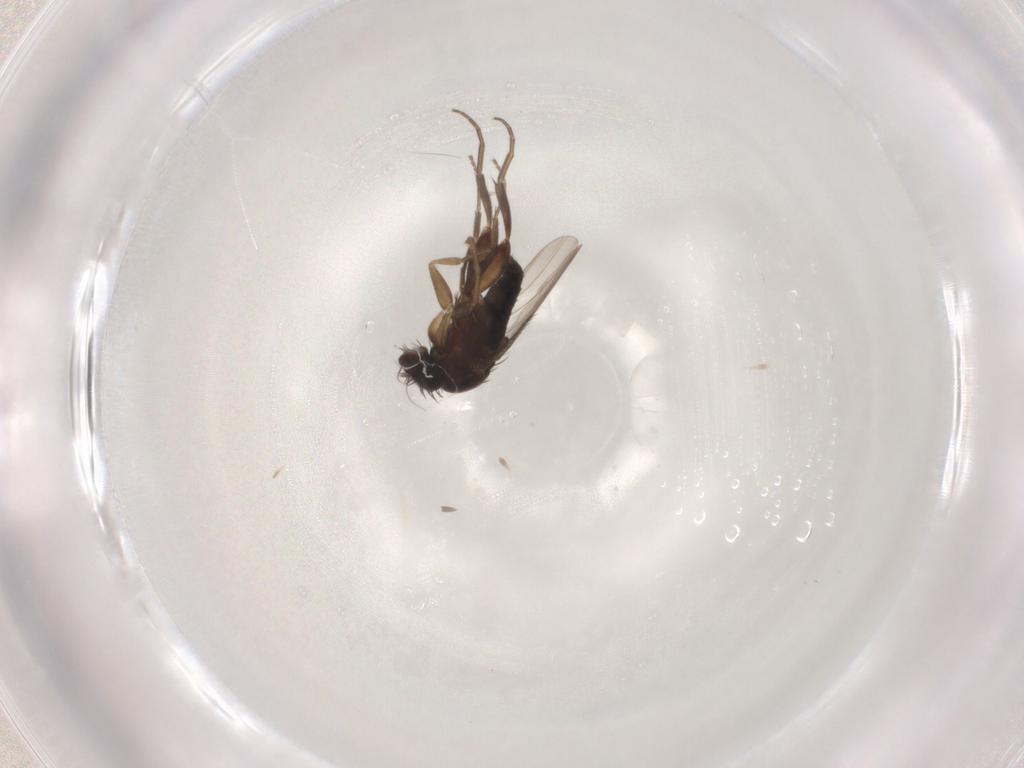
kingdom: Animalia
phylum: Arthropoda
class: Insecta
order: Diptera
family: Phoridae
